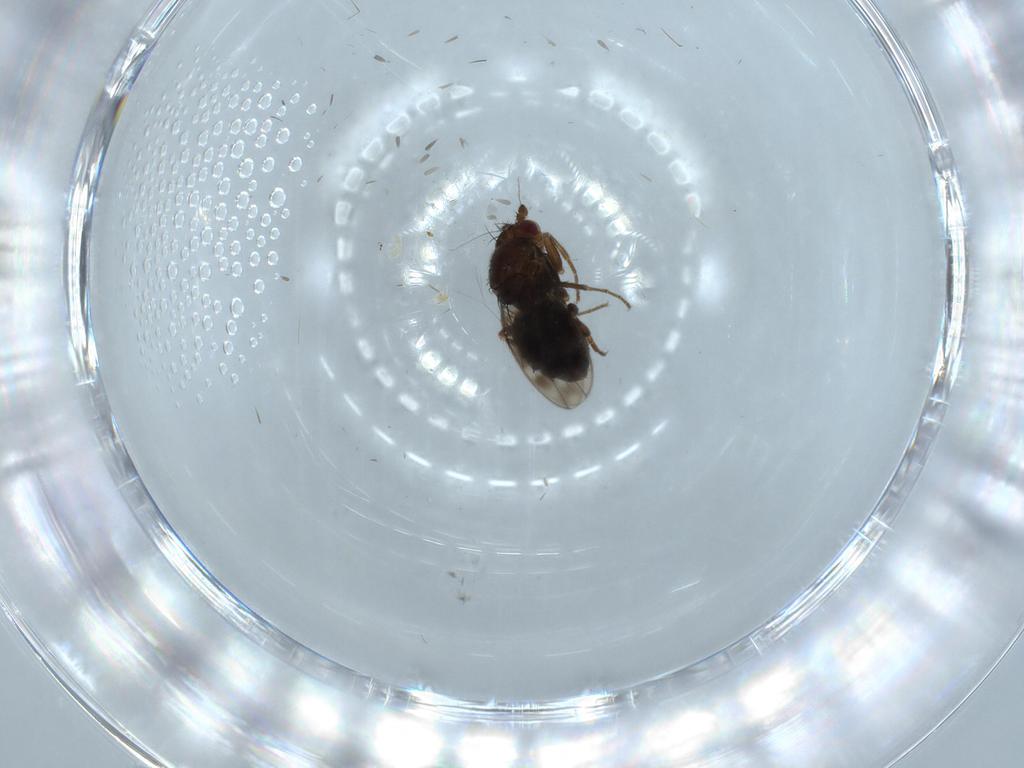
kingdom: Animalia
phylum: Arthropoda
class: Insecta
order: Diptera
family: Sphaeroceridae
